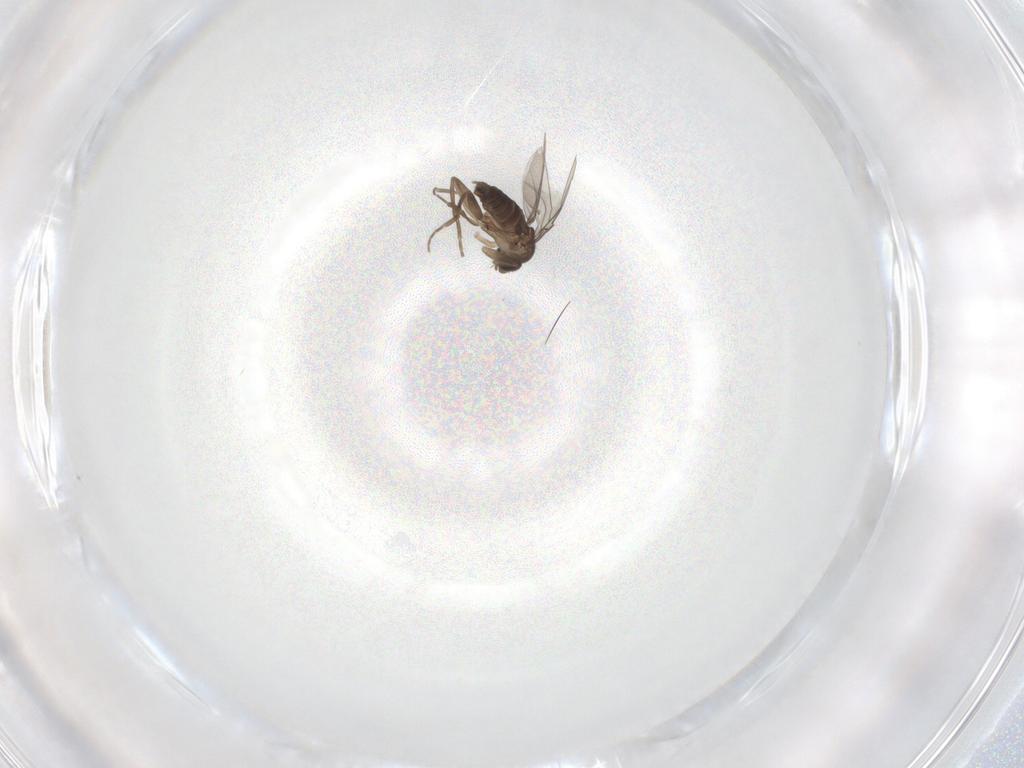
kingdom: Animalia
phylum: Arthropoda
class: Insecta
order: Diptera
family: Phoridae
